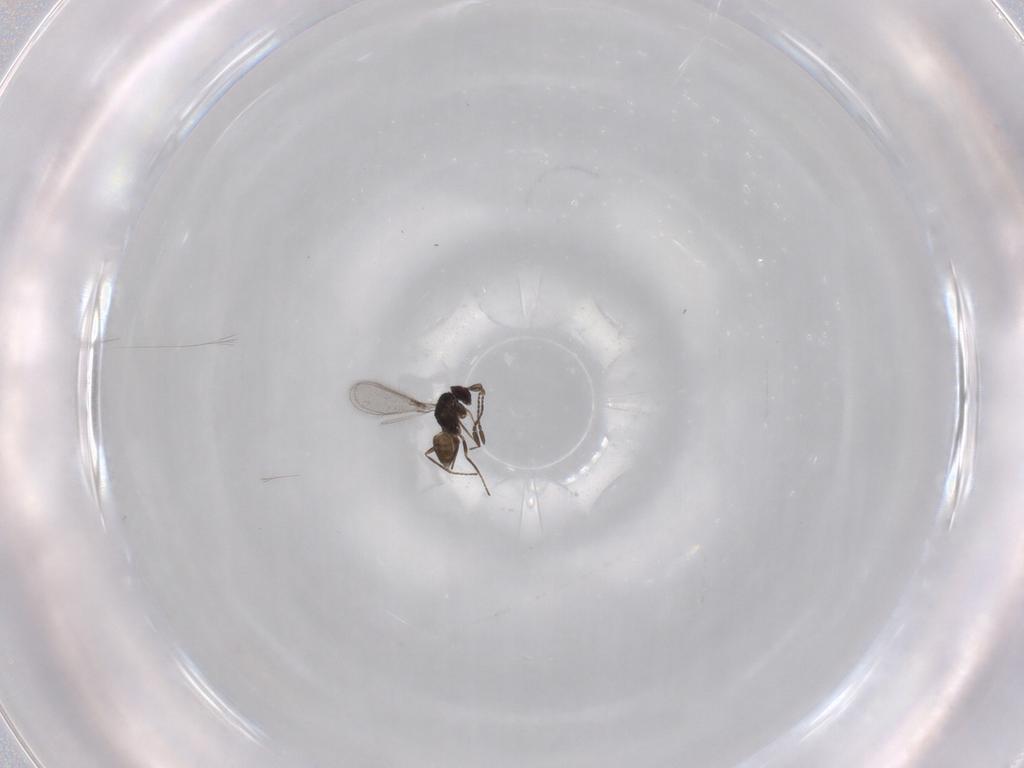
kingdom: Animalia
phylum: Arthropoda
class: Insecta
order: Hymenoptera
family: Mymaridae
